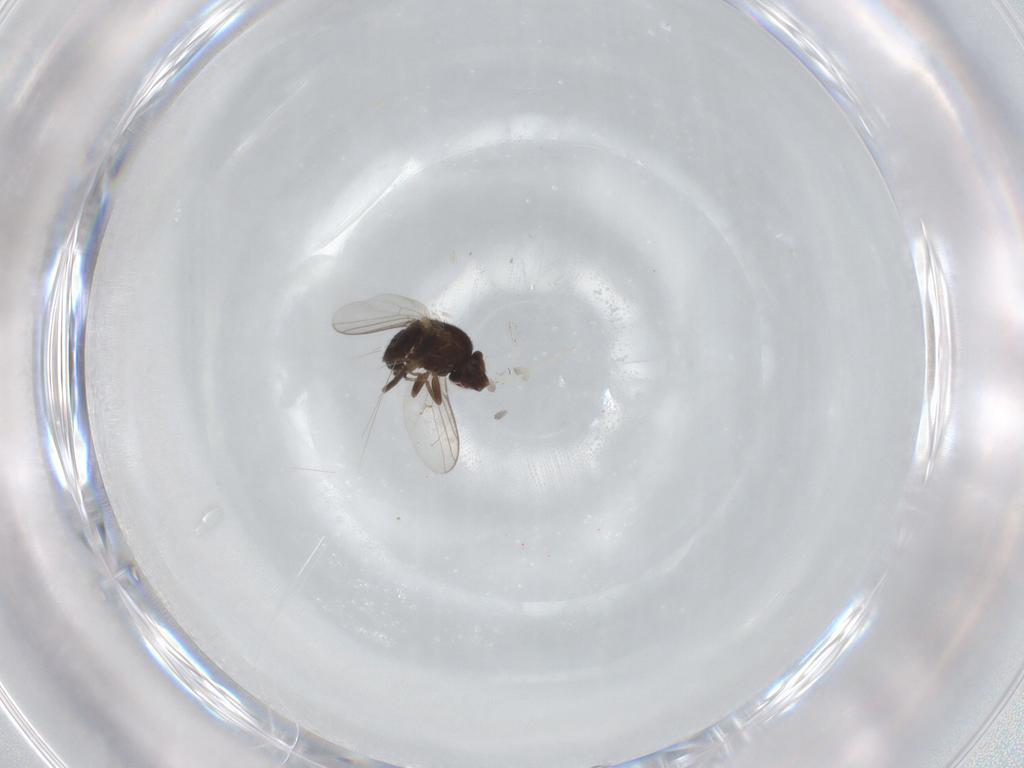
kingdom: Animalia
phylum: Arthropoda
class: Insecta
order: Diptera
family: Chloropidae
